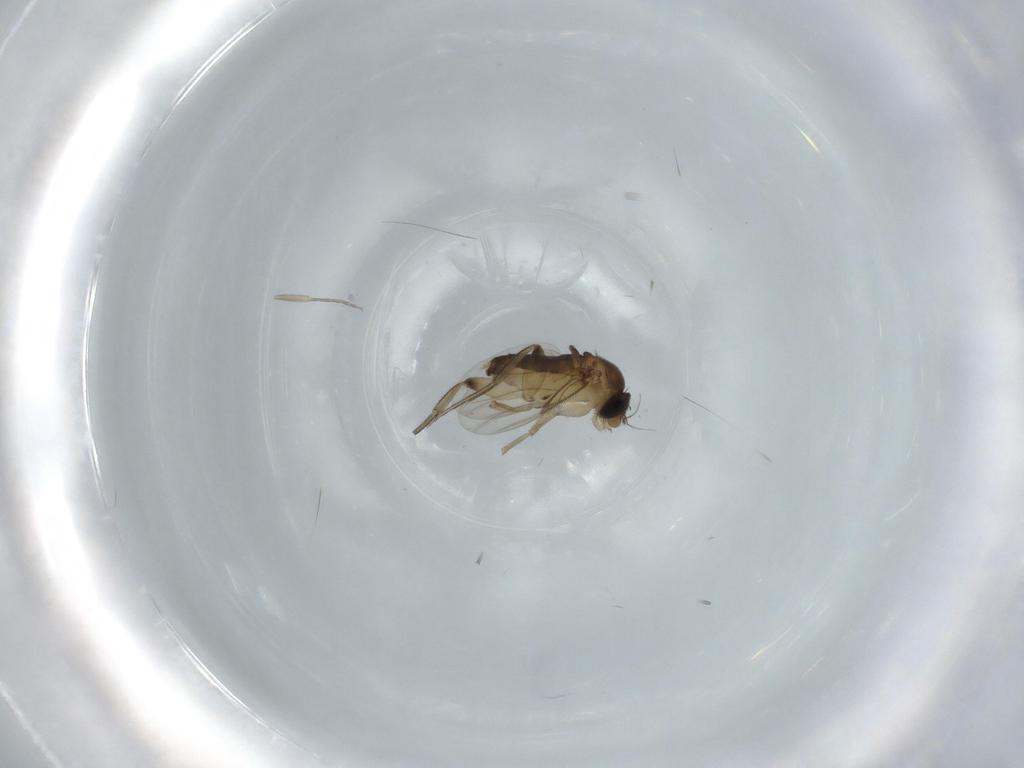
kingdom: Animalia
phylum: Arthropoda
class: Insecta
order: Diptera
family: Phoridae
